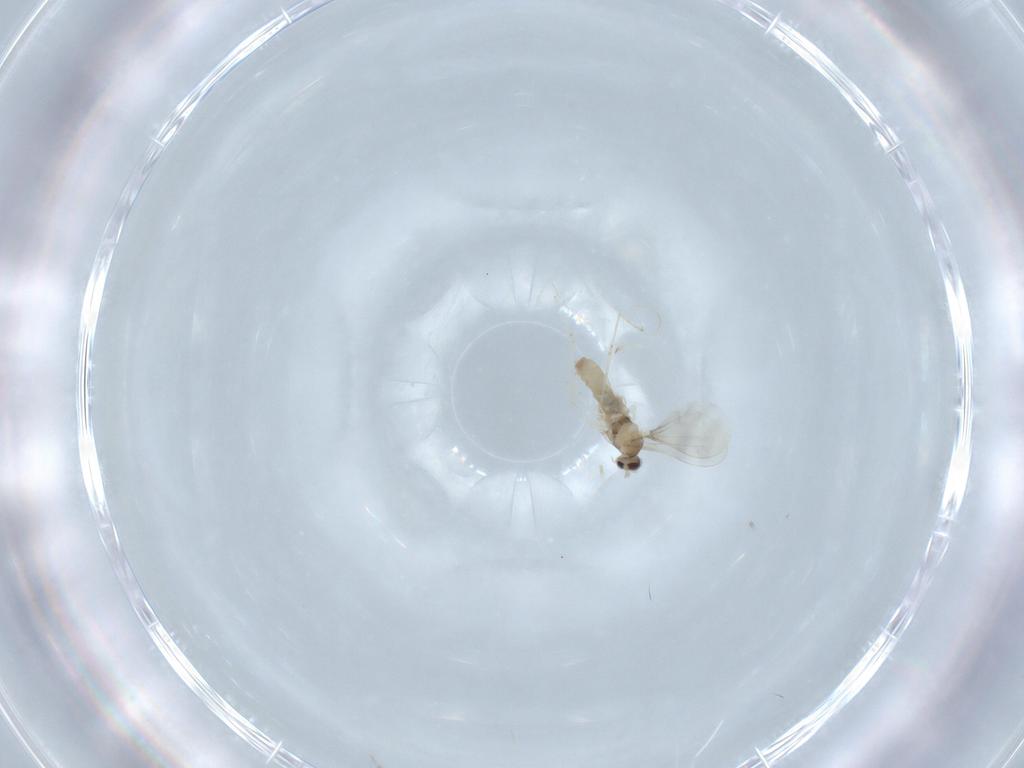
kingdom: Animalia
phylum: Arthropoda
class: Insecta
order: Diptera
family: Cecidomyiidae
